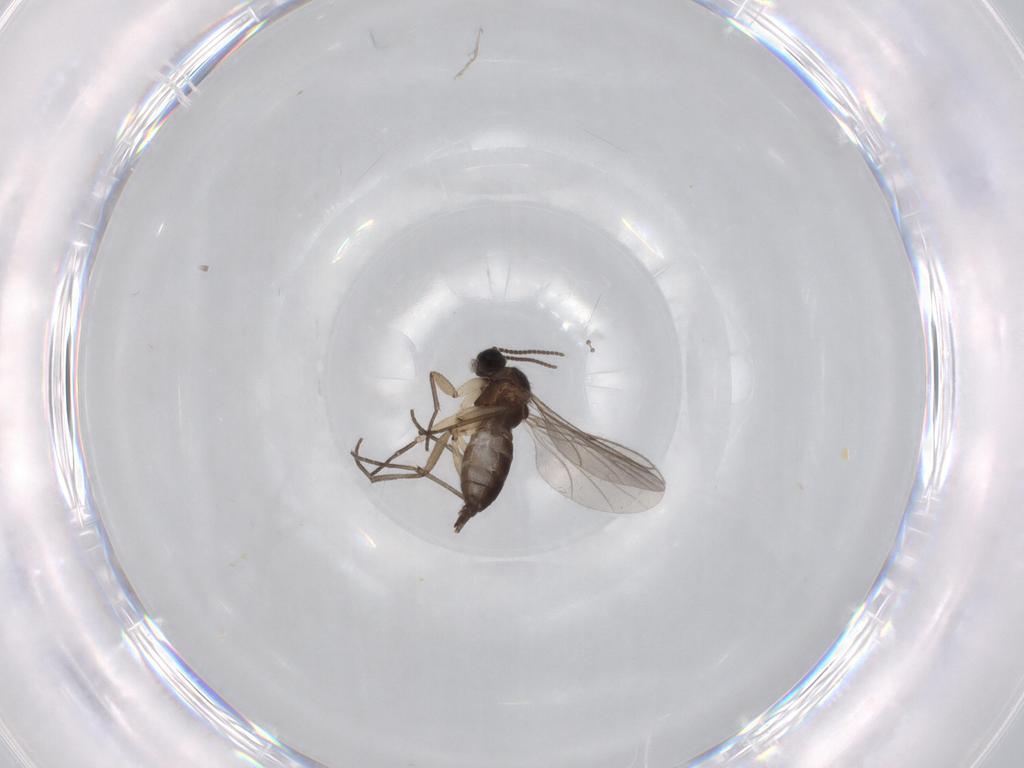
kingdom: Animalia
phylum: Arthropoda
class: Insecta
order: Diptera
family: Sciaridae
